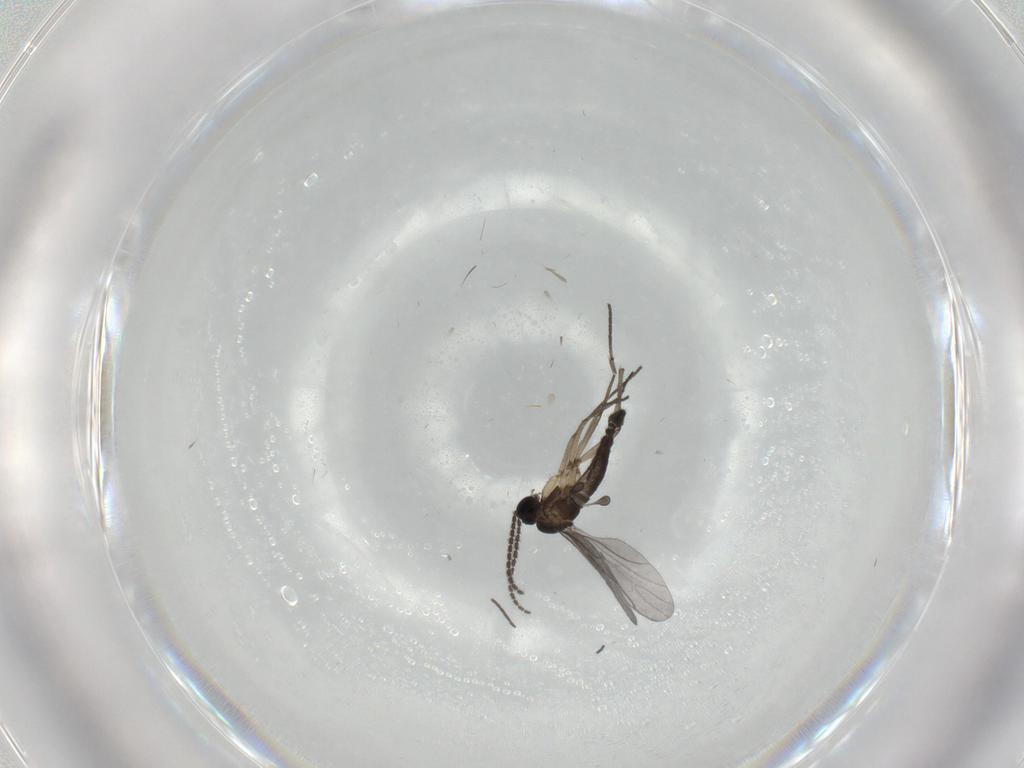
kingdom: Animalia
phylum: Arthropoda
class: Insecta
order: Diptera
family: Sciaridae
